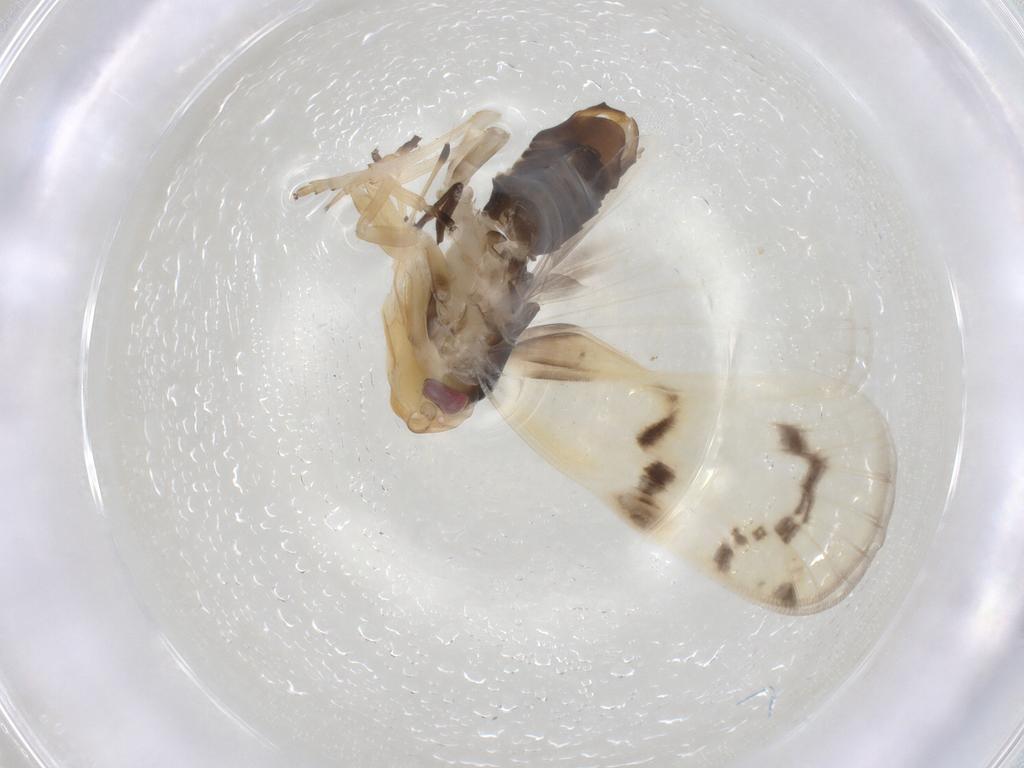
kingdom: Animalia
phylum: Arthropoda
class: Insecta
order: Hemiptera
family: Cixiidae
